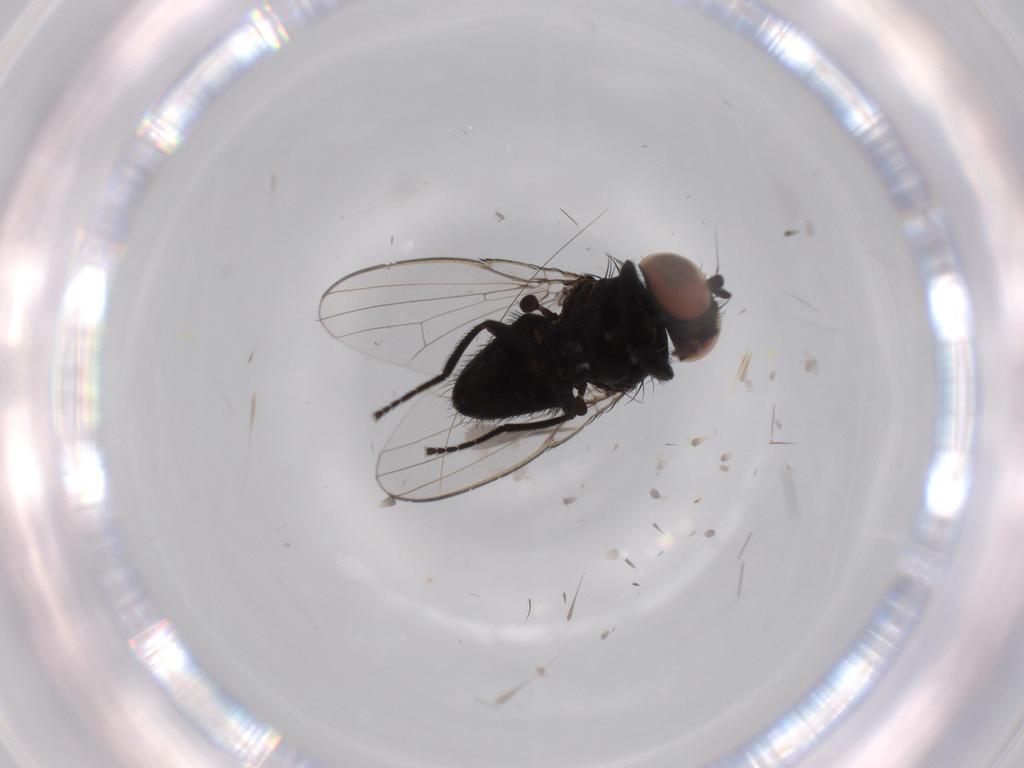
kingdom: Animalia
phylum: Arthropoda
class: Insecta
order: Diptera
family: Milichiidae
